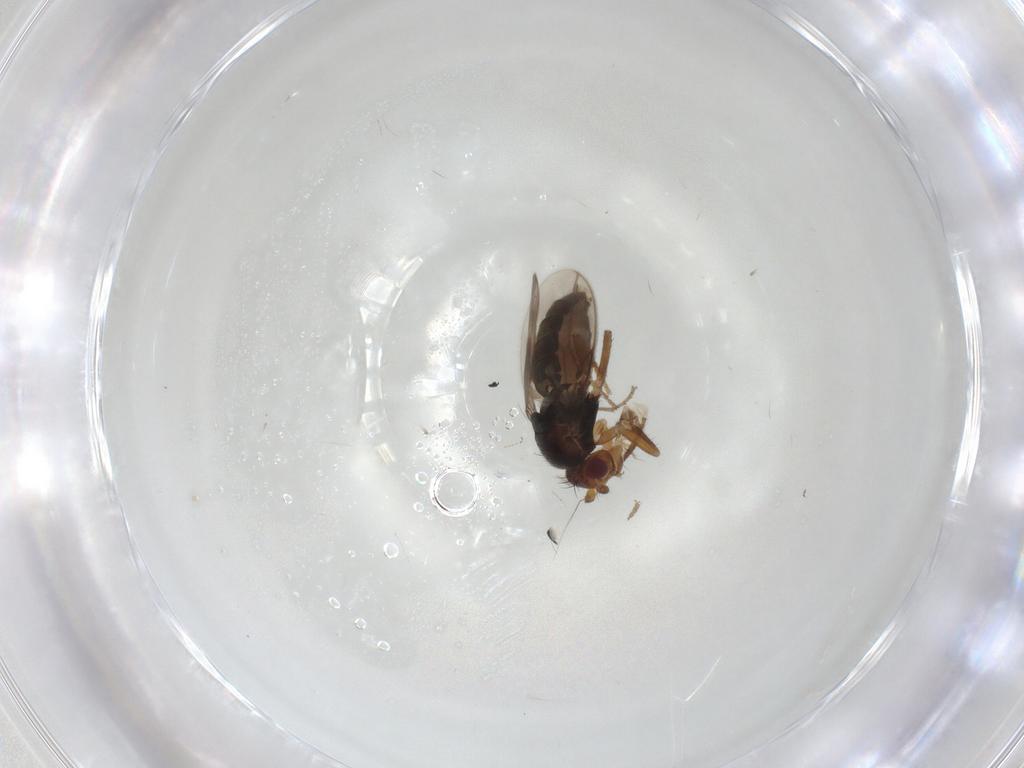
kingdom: Animalia
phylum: Arthropoda
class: Insecta
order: Diptera
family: Sphaeroceridae
